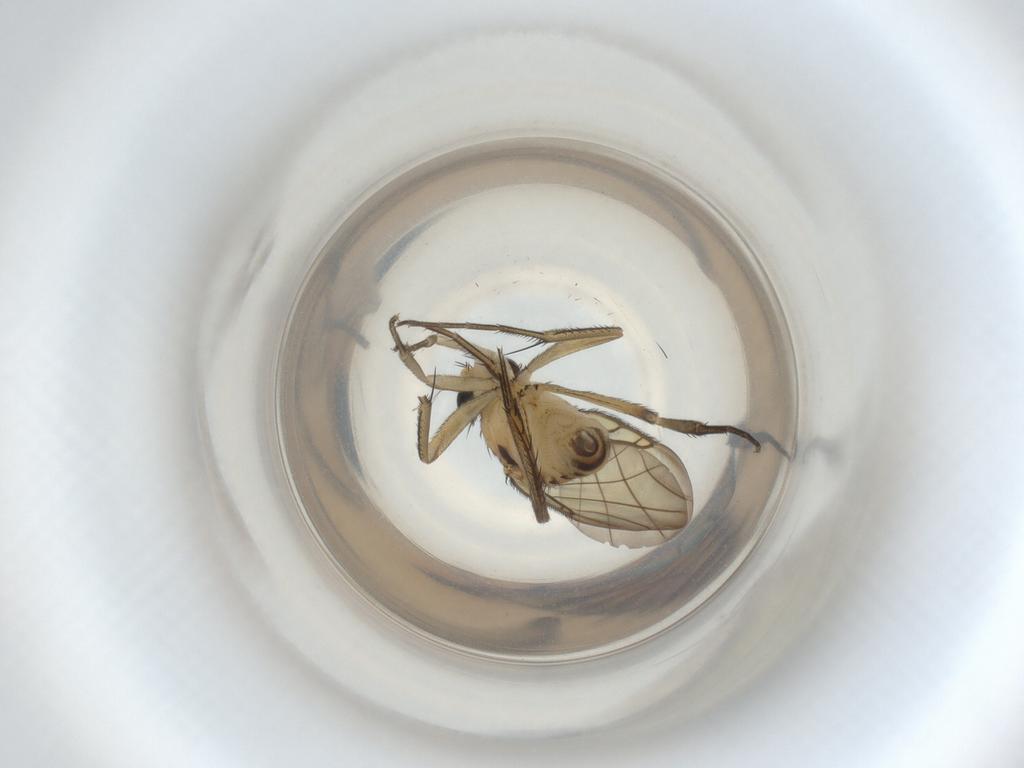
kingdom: Animalia
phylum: Arthropoda
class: Insecta
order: Diptera
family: Phoridae
